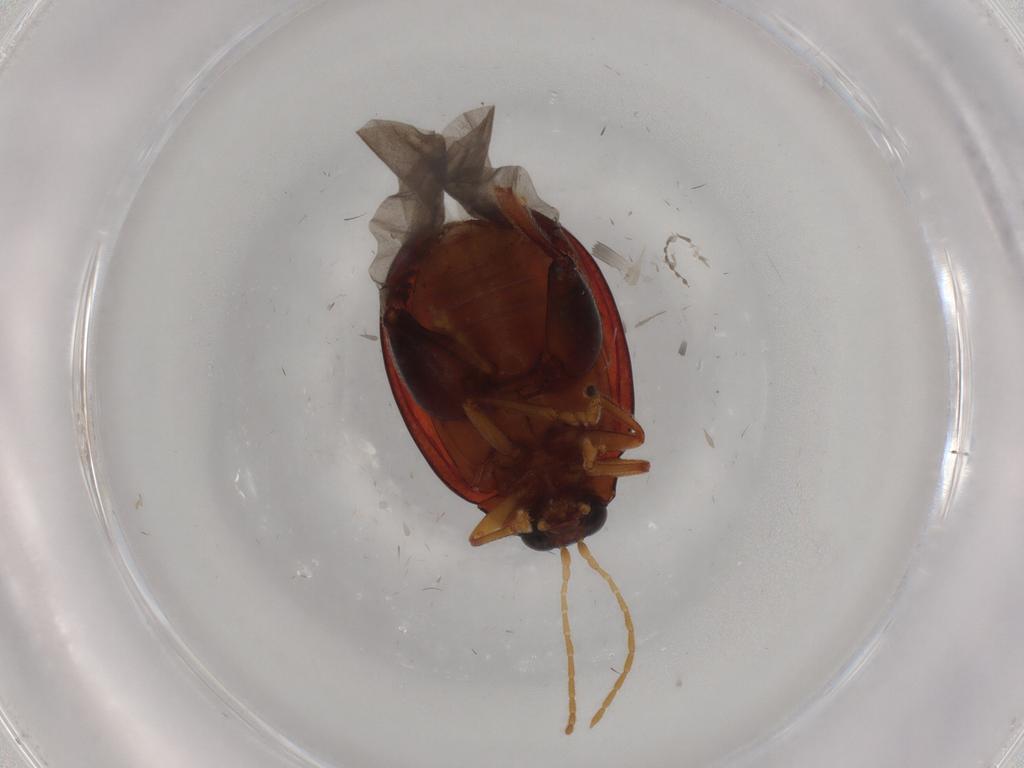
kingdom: Animalia
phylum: Arthropoda
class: Insecta
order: Coleoptera
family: Chrysomelidae
